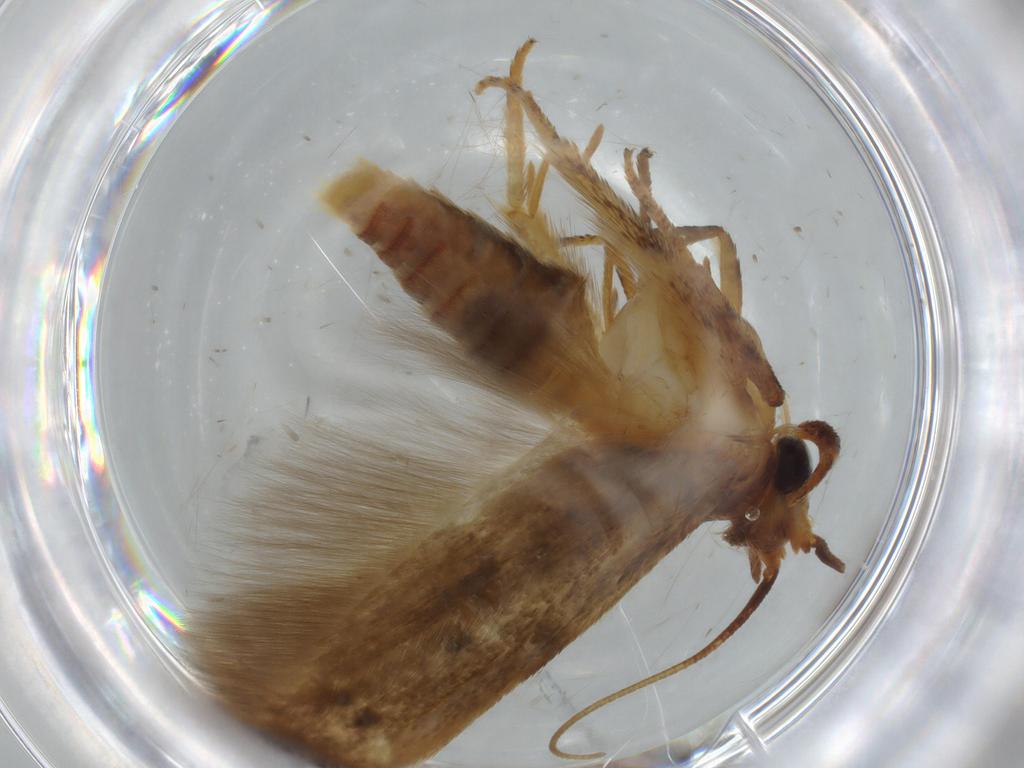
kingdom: Animalia
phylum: Arthropoda
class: Insecta
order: Lepidoptera
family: Blastobasidae
